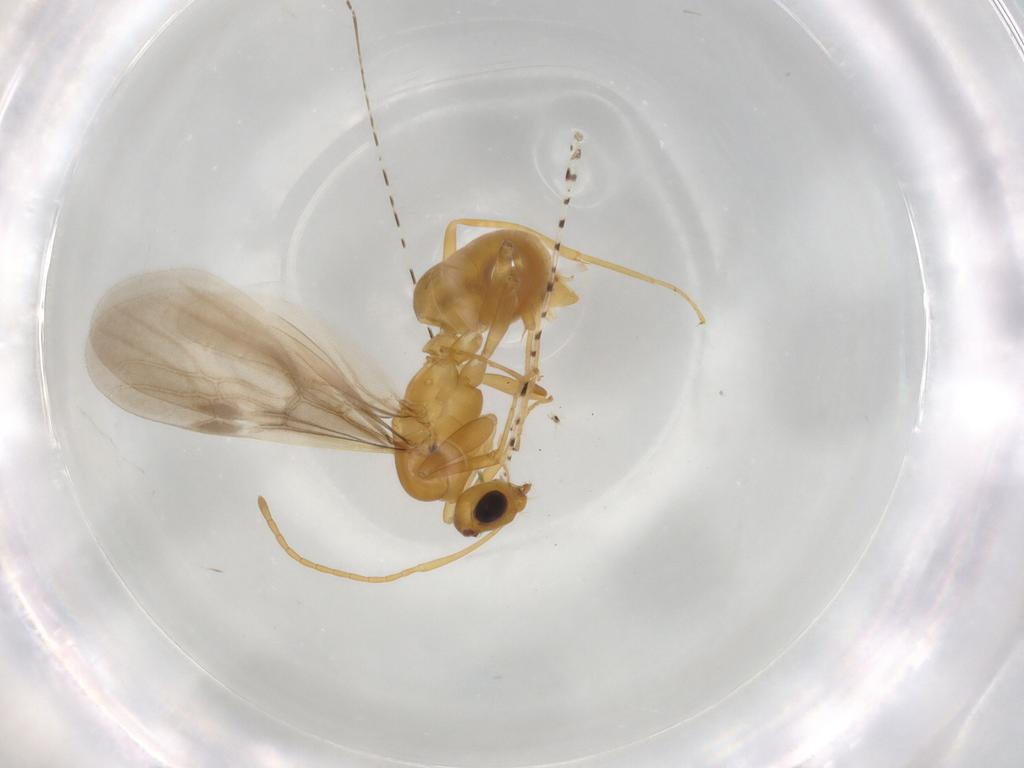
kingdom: Animalia
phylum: Arthropoda
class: Insecta
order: Hymenoptera
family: Formicidae
